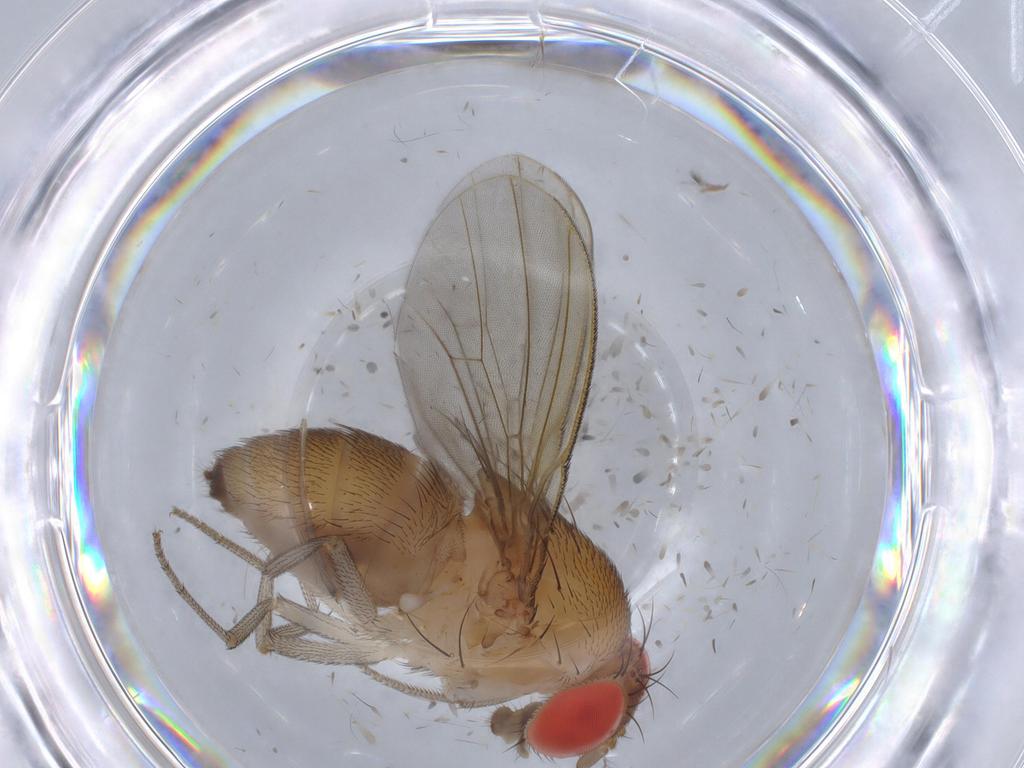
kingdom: Animalia
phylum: Arthropoda
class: Insecta
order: Diptera
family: Drosophilidae
